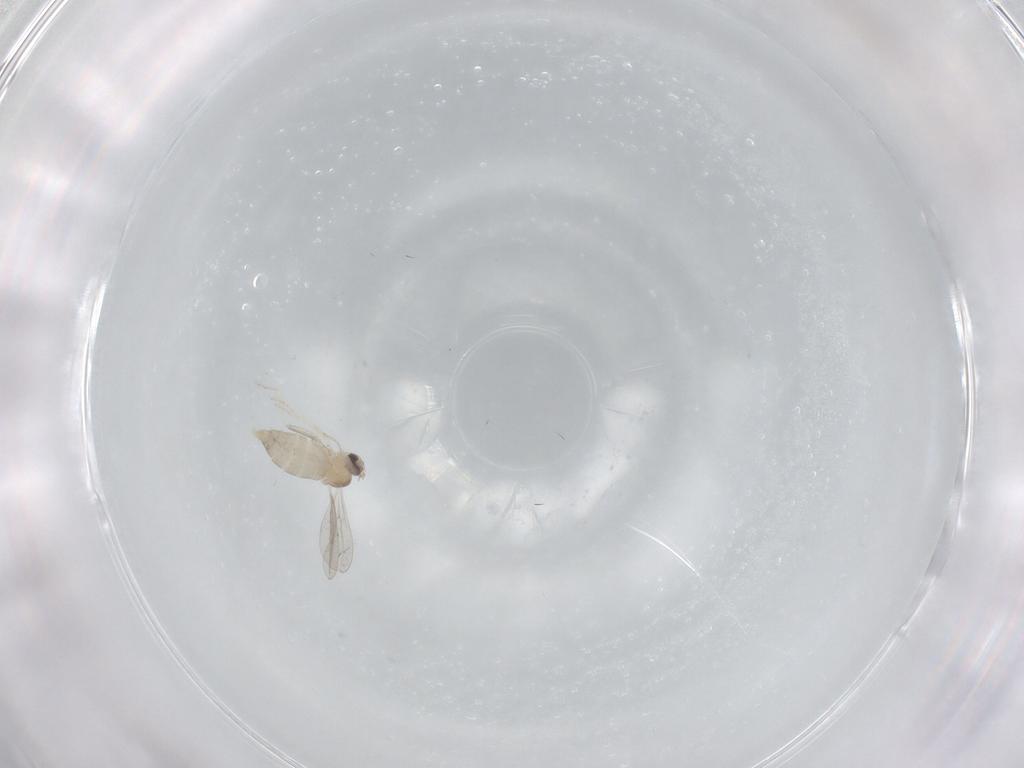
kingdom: Animalia
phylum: Arthropoda
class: Insecta
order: Diptera
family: Cecidomyiidae
